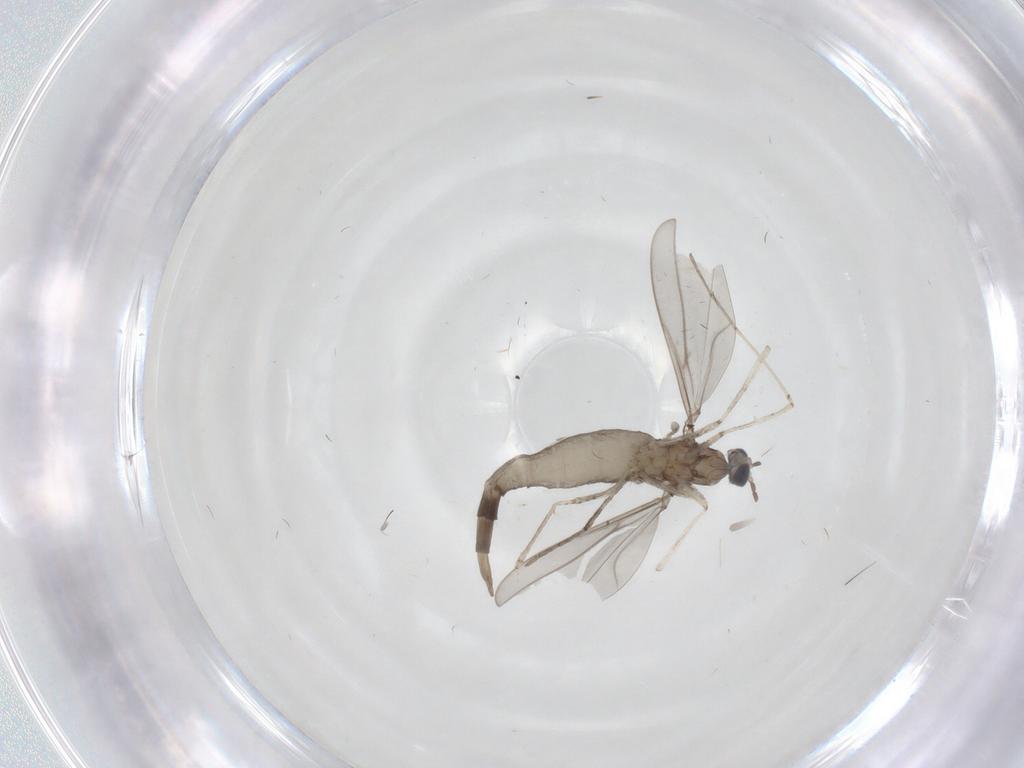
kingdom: Animalia
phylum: Arthropoda
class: Insecta
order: Diptera
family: Cecidomyiidae
